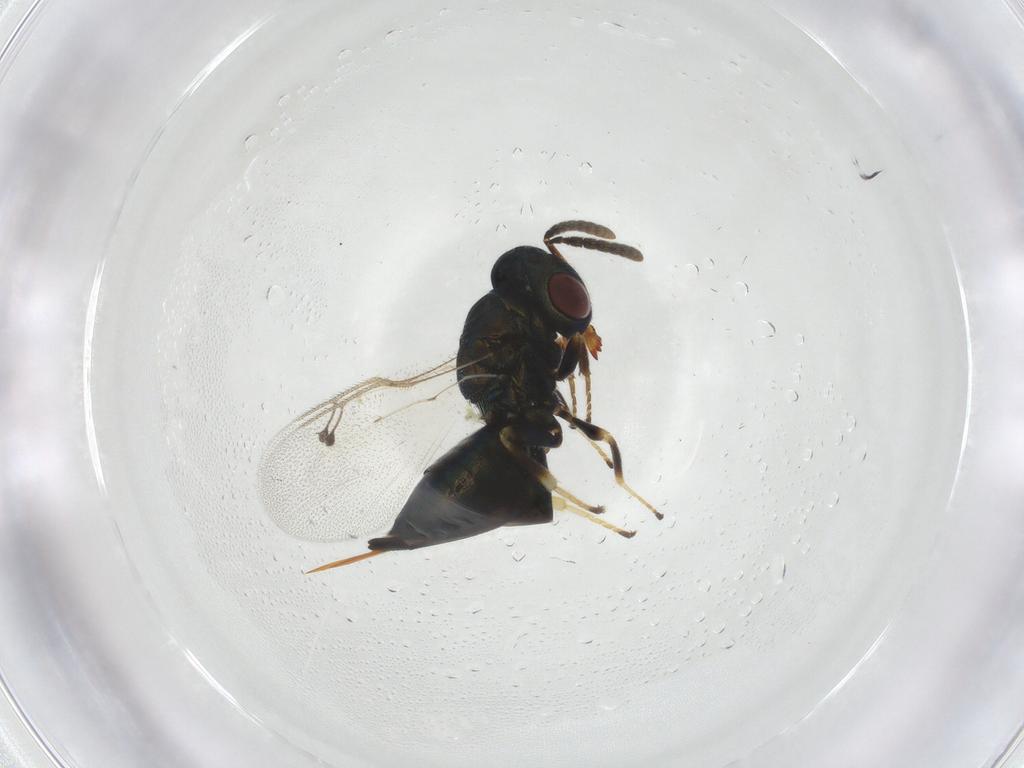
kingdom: Animalia
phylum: Arthropoda
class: Insecta
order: Hymenoptera
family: Pteromalidae
